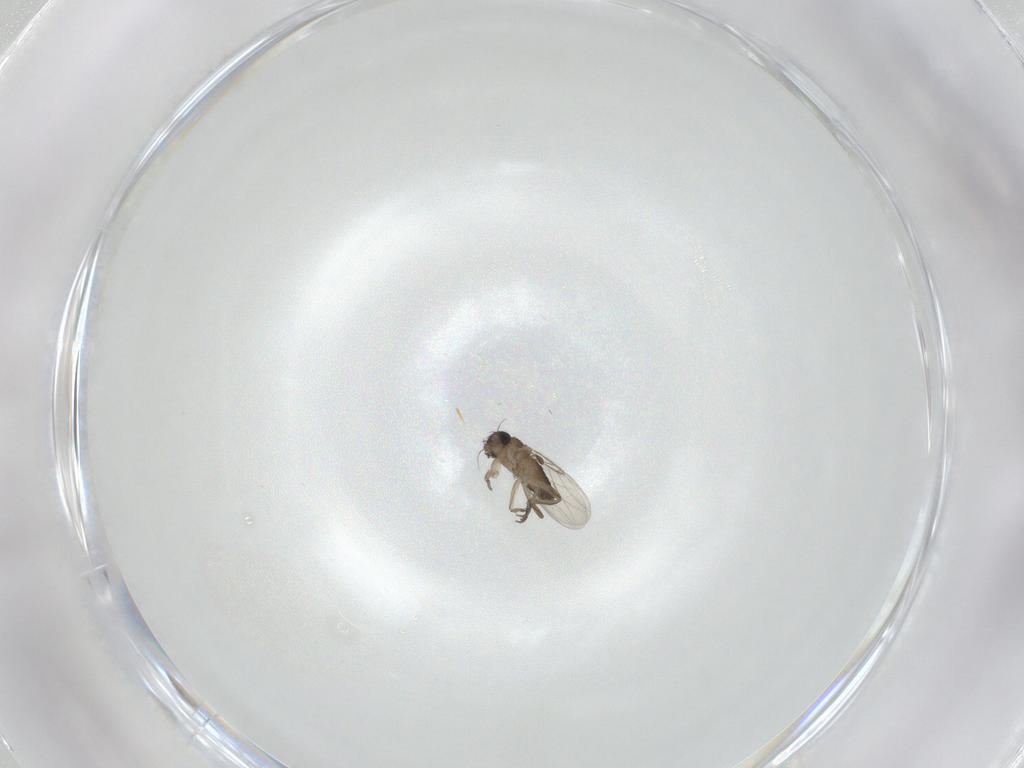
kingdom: Animalia
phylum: Arthropoda
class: Insecta
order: Diptera
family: Phoridae
